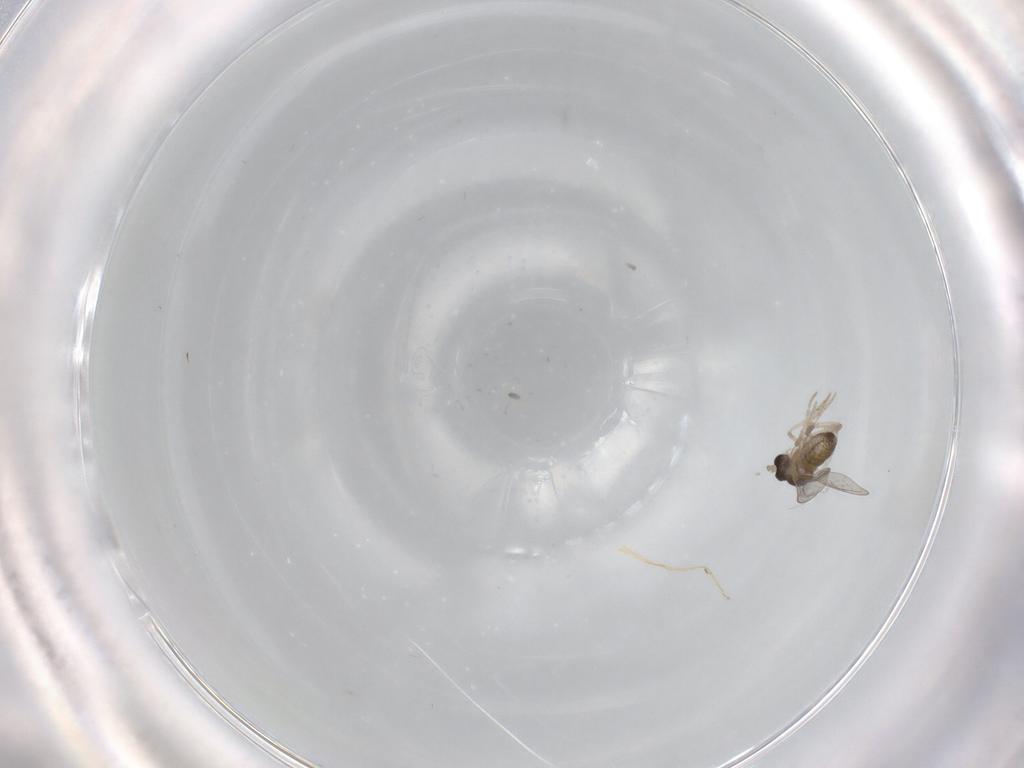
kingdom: Animalia
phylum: Arthropoda
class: Insecta
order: Diptera
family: Cecidomyiidae
